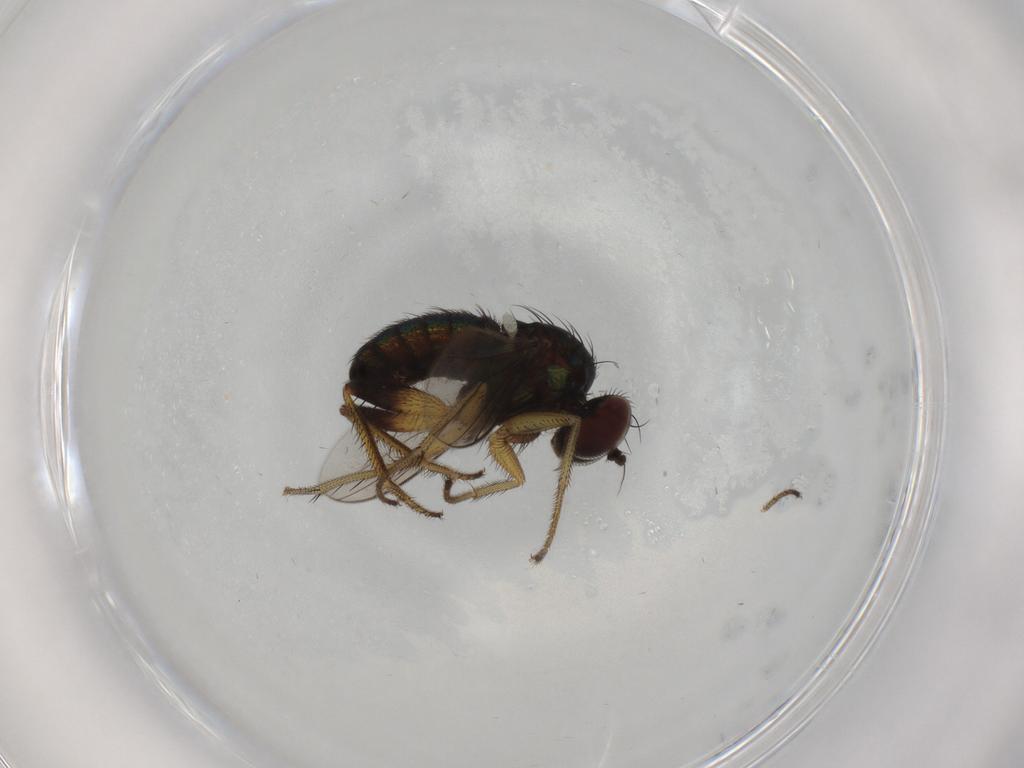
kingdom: Animalia
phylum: Arthropoda
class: Insecta
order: Diptera
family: Dolichopodidae
